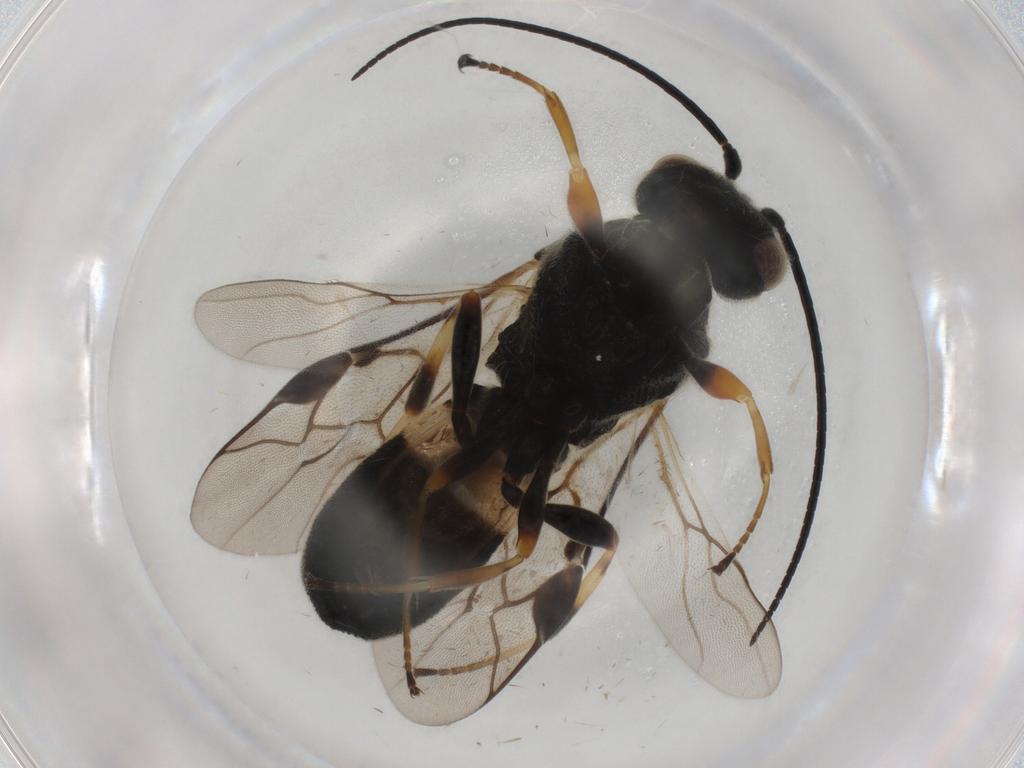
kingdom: Animalia
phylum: Arthropoda
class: Insecta
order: Hymenoptera
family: Braconidae
